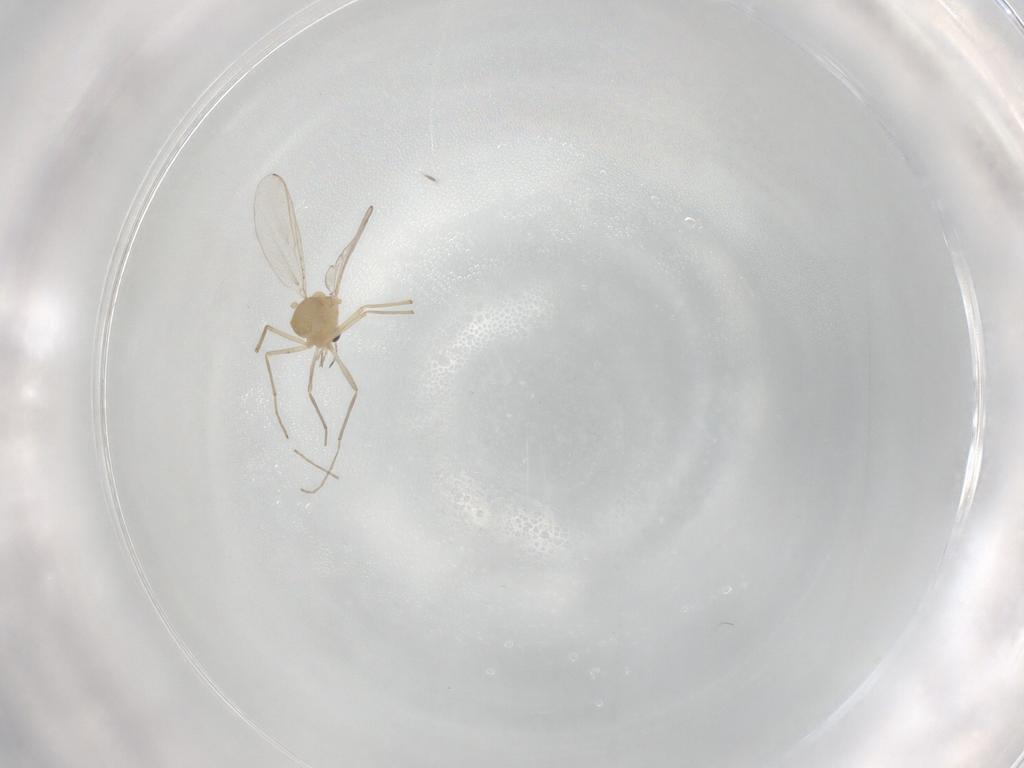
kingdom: Animalia
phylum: Arthropoda
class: Insecta
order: Diptera
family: Chironomidae
